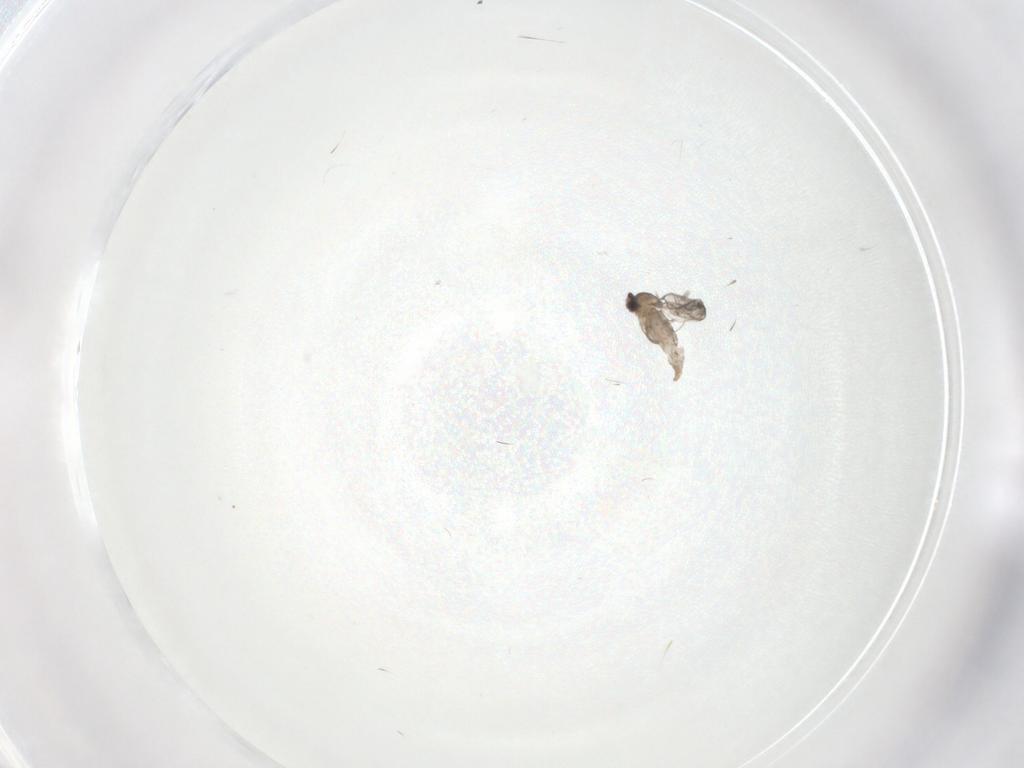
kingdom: Animalia
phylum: Arthropoda
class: Insecta
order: Diptera
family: Cecidomyiidae
